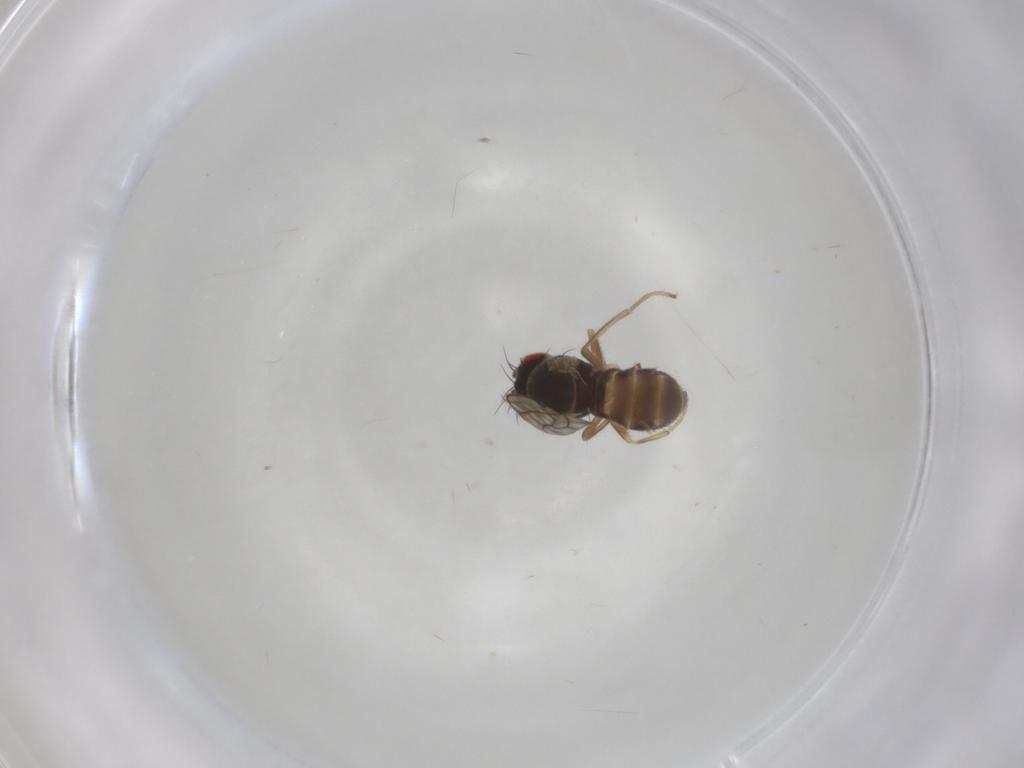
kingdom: Animalia
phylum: Arthropoda
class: Insecta
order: Diptera
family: Ephydridae
